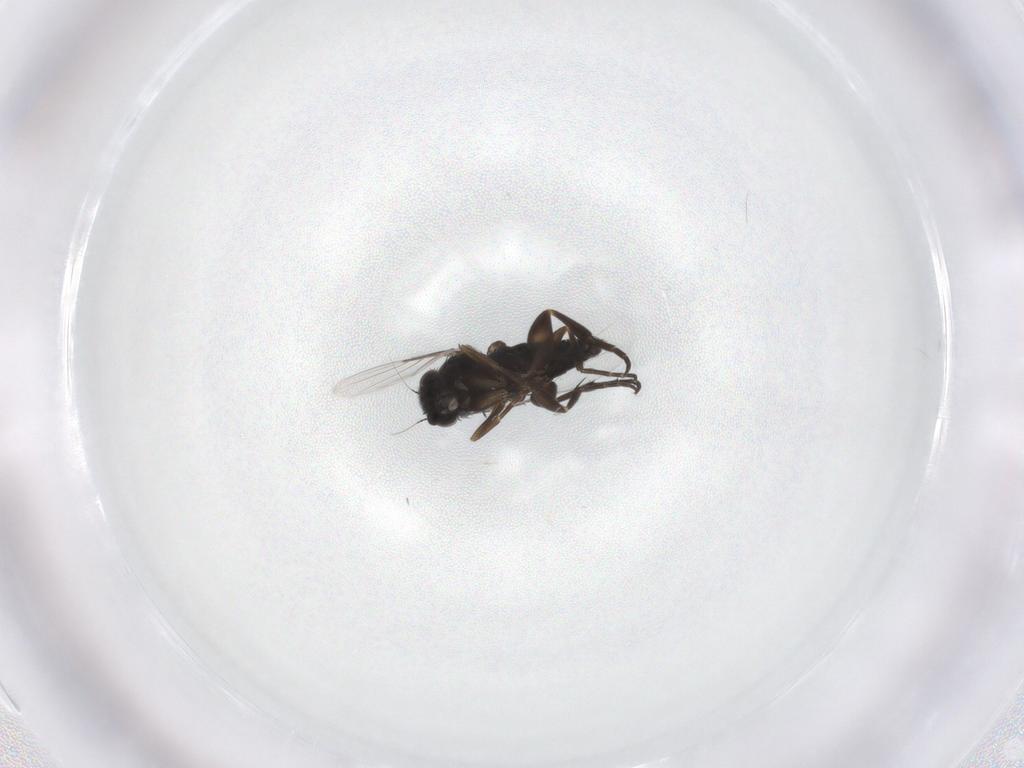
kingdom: Animalia
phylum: Arthropoda
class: Insecta
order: Diptera
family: Phoridae
